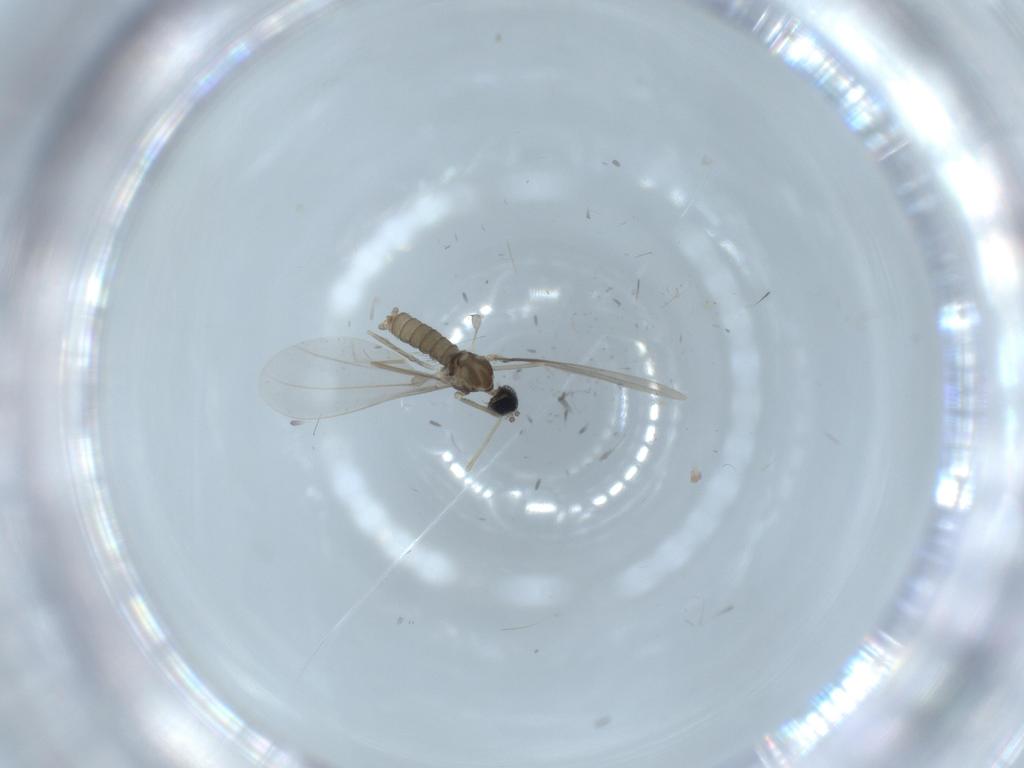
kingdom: Animalia
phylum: Arthropoda
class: Insecta
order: Diptera
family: Cecidomyiidae
